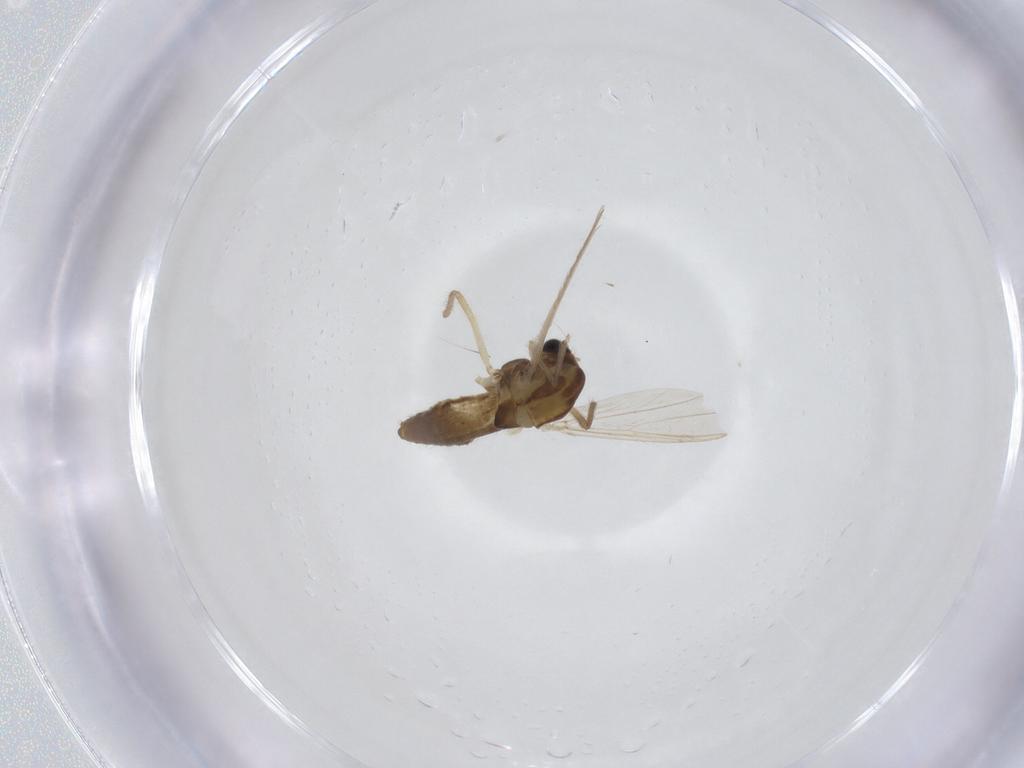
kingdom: Animalia
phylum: Arthropoda
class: Insecta
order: Diptera
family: Chironomidae
